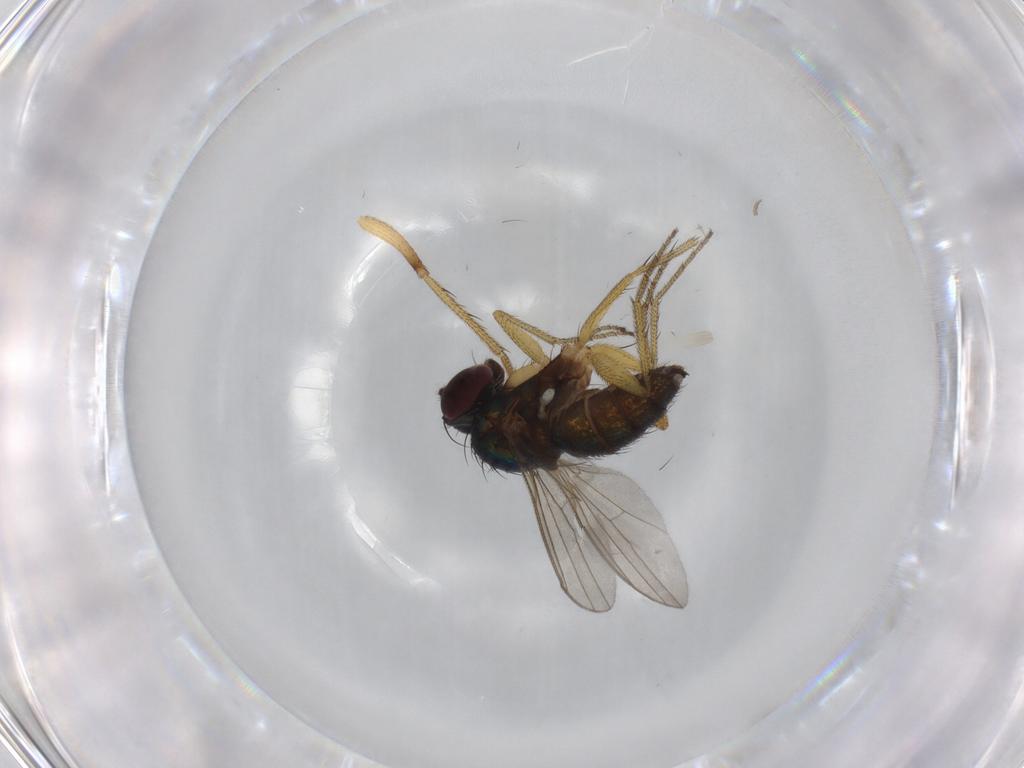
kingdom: Animalia
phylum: Arthropoda
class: Insecta
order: Diptera
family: Dolichopodidae
